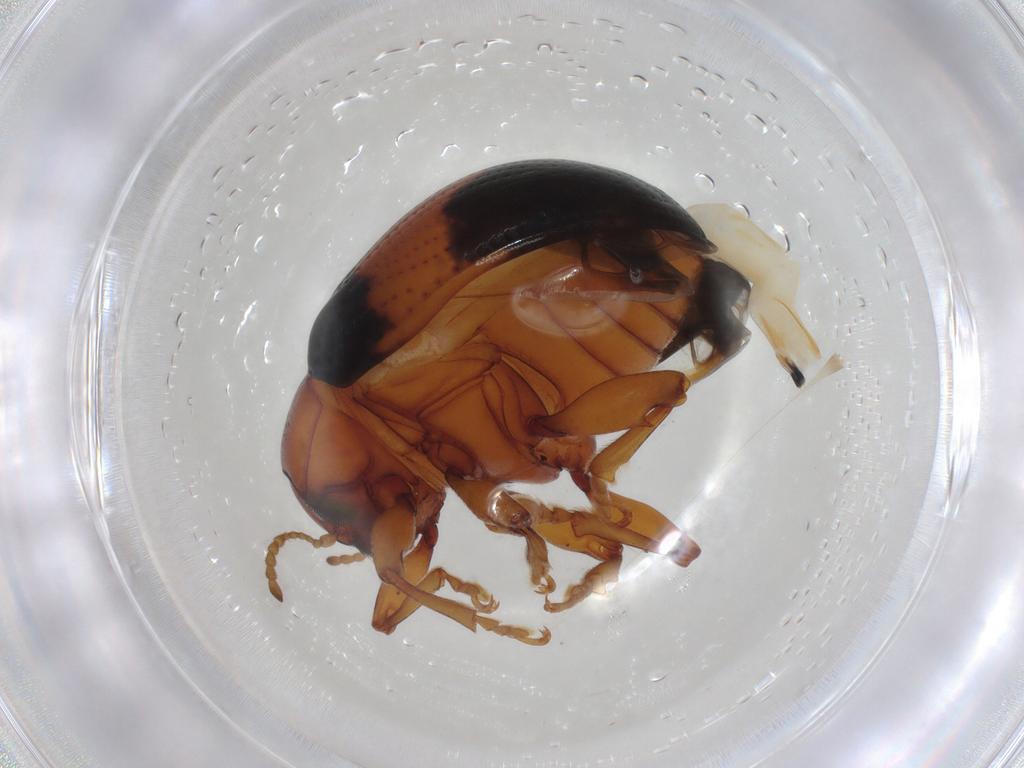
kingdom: Animalia
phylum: Arthropoda
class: Insecta
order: Coleoptera
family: Chrysomelidae
